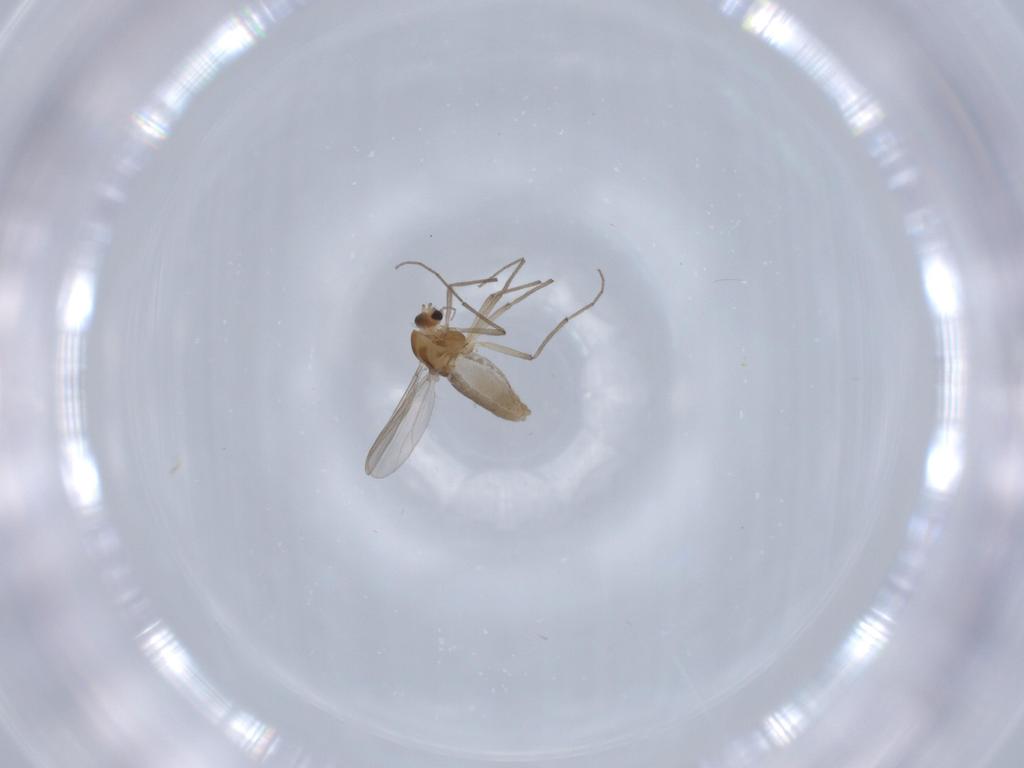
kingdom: Animalia
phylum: Arthropoda
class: Insecta
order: Diptera
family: Chironomidae
